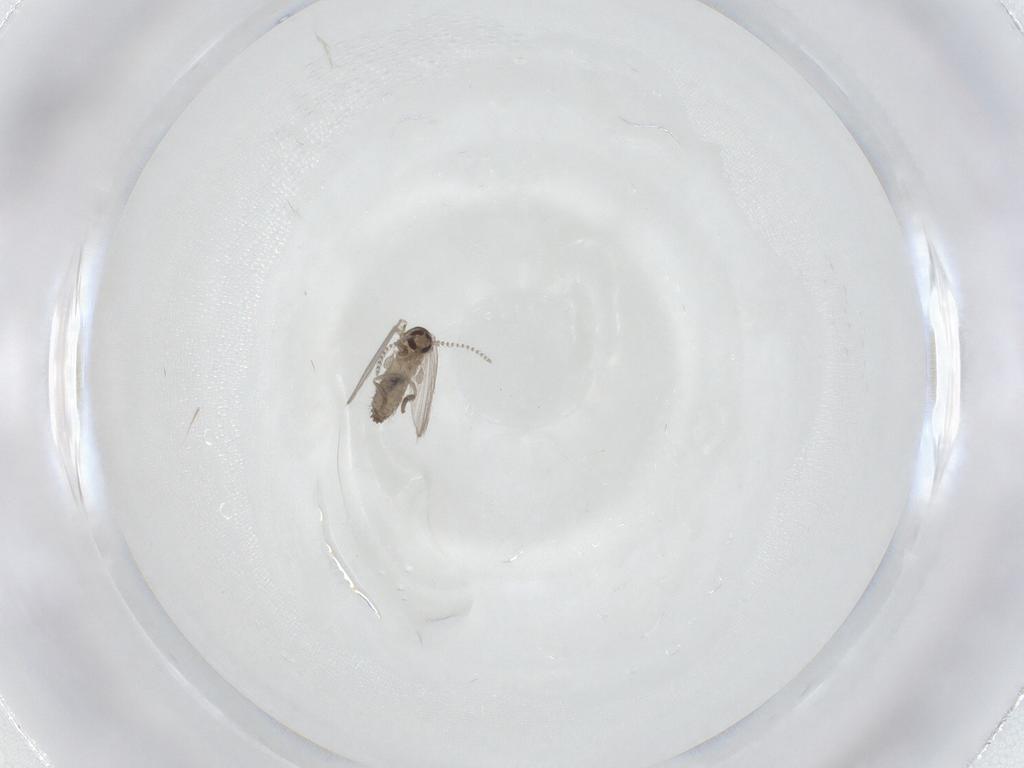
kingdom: Animalia
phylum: Arthropoda
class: Insecta
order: Diptera
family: Psychodidae
